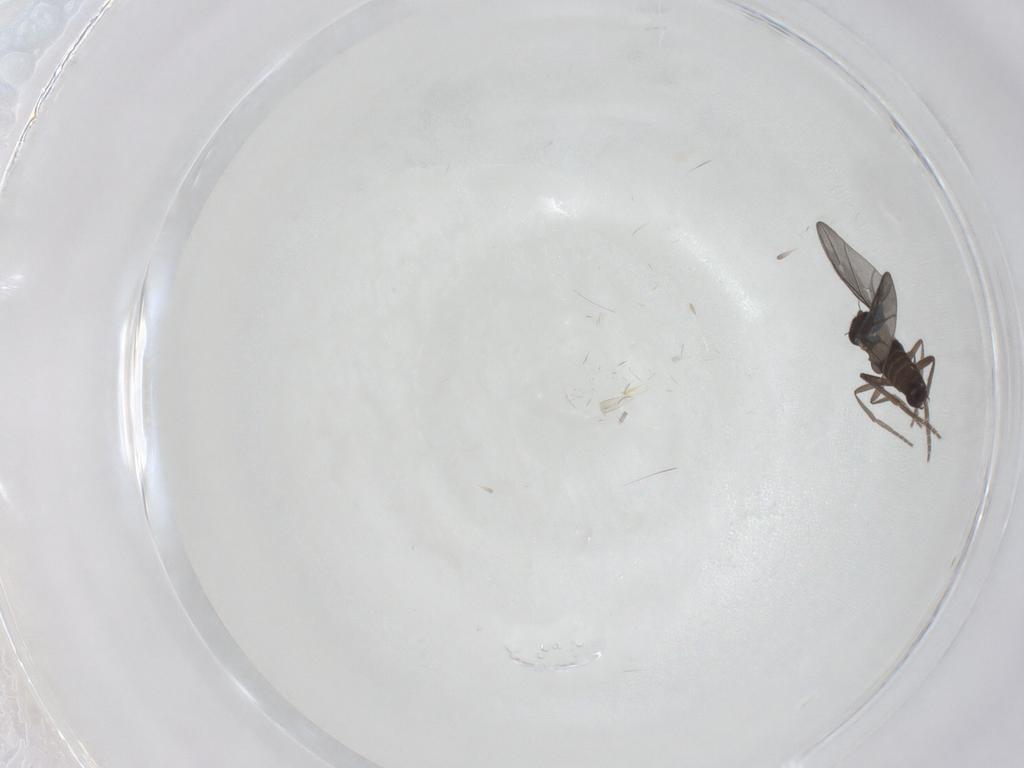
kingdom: Animalia
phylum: Arthropoda
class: Insecta
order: Diptera
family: Phoridae
